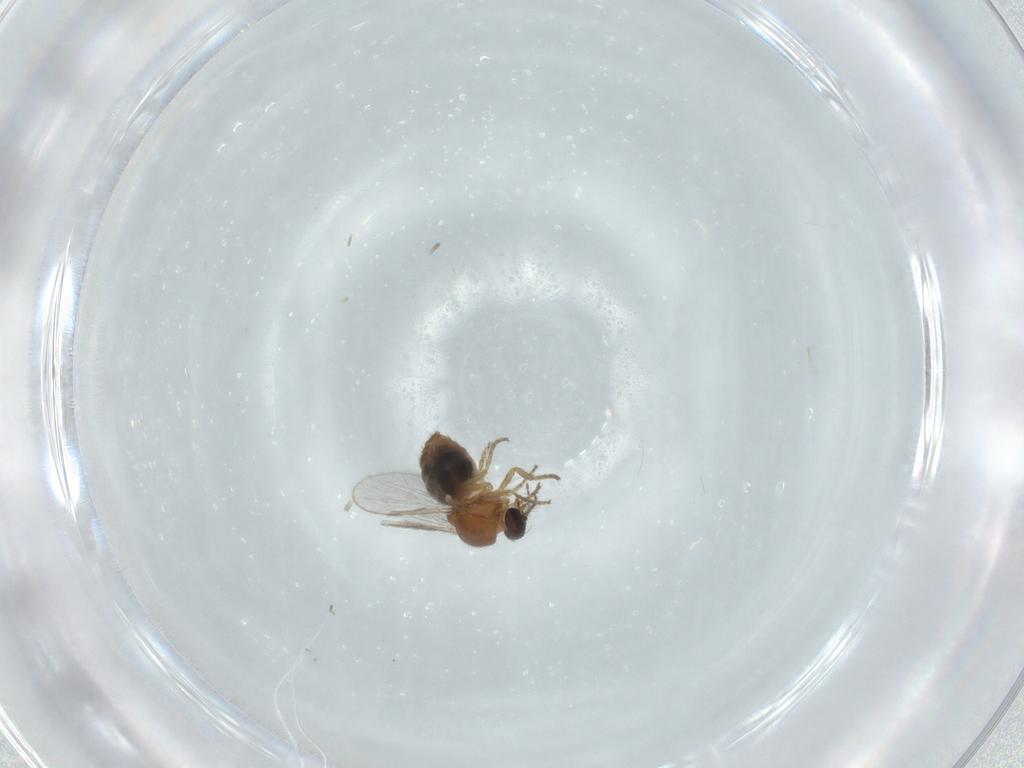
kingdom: Animalia
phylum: Arthropoda
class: Insecta
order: Diptera
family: Ceratopogonidae
